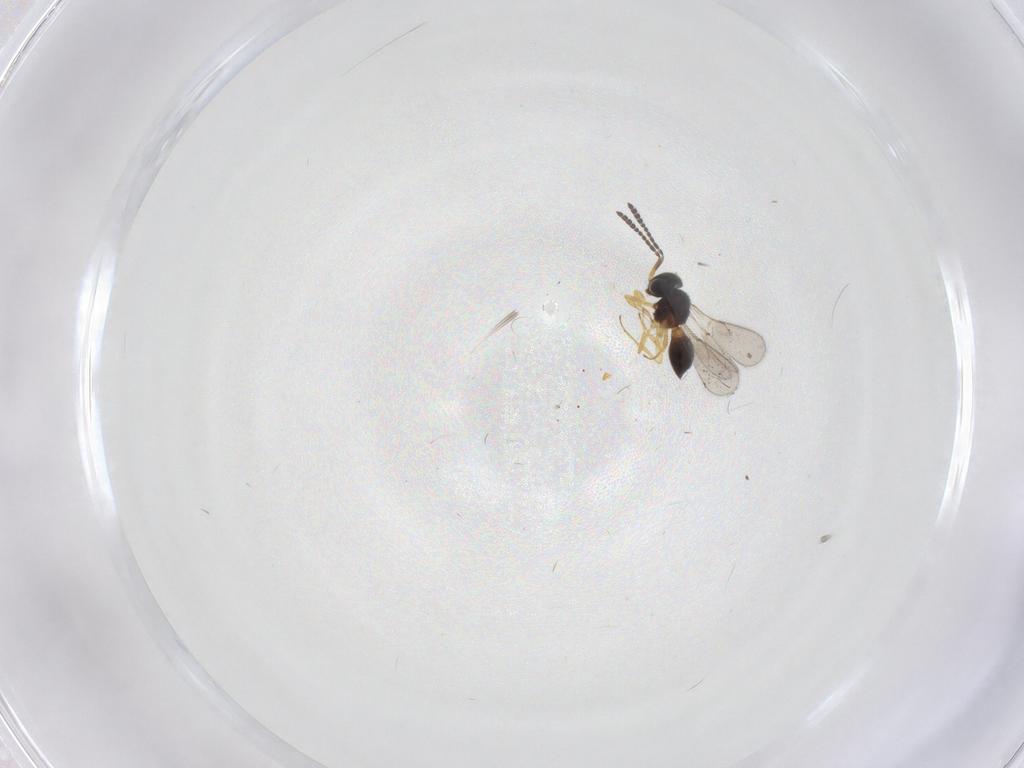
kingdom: Animalia
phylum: Arthropoda
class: Insecta
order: Hymenoptera
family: Scelionidae
